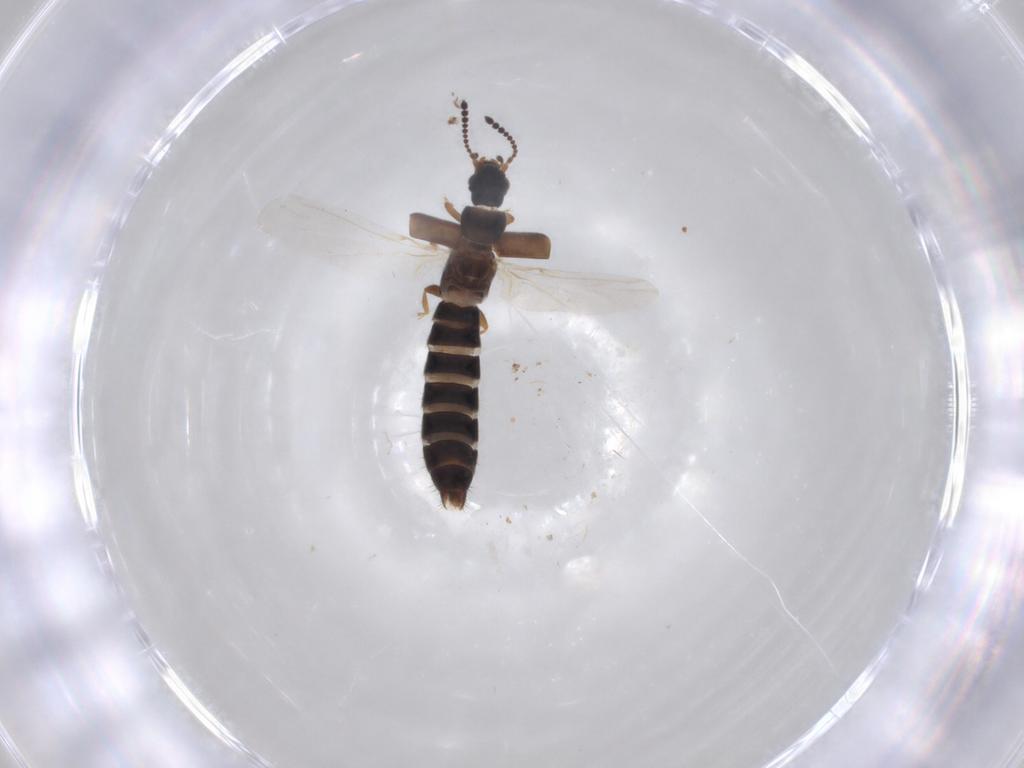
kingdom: Animalia
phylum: Arthropoda
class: Insecta
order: Coleoptera
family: Staphylinidae
